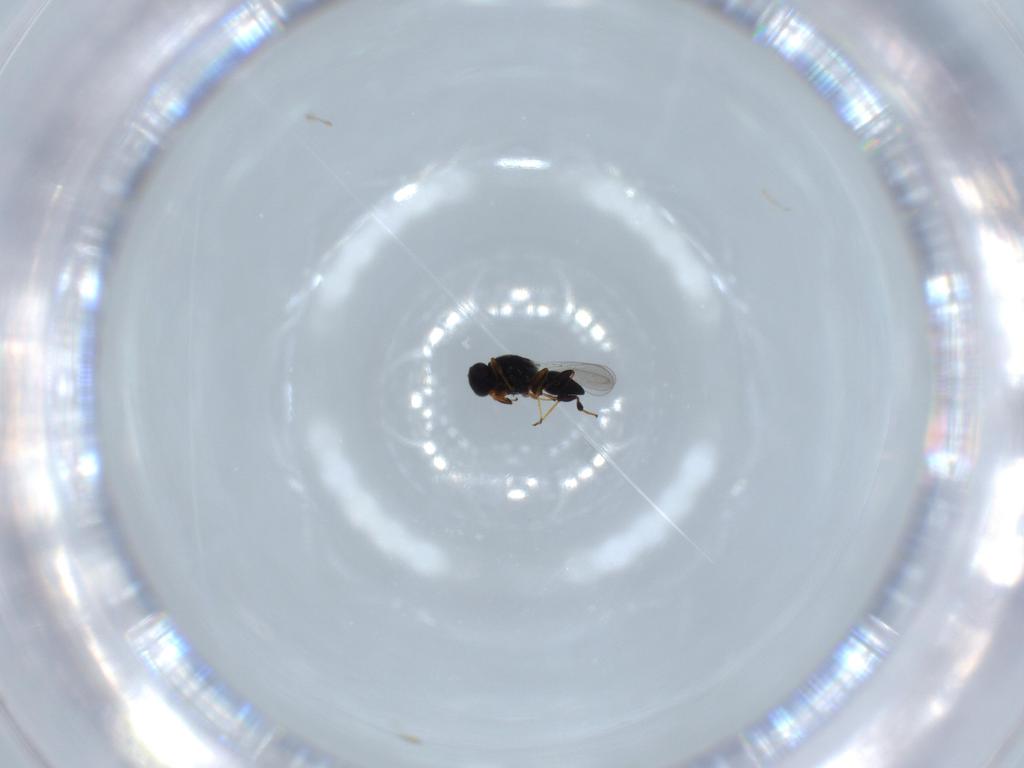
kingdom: Animalia
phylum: Arthropoda
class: Insecta
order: Hymenoptera
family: Platygastridae
